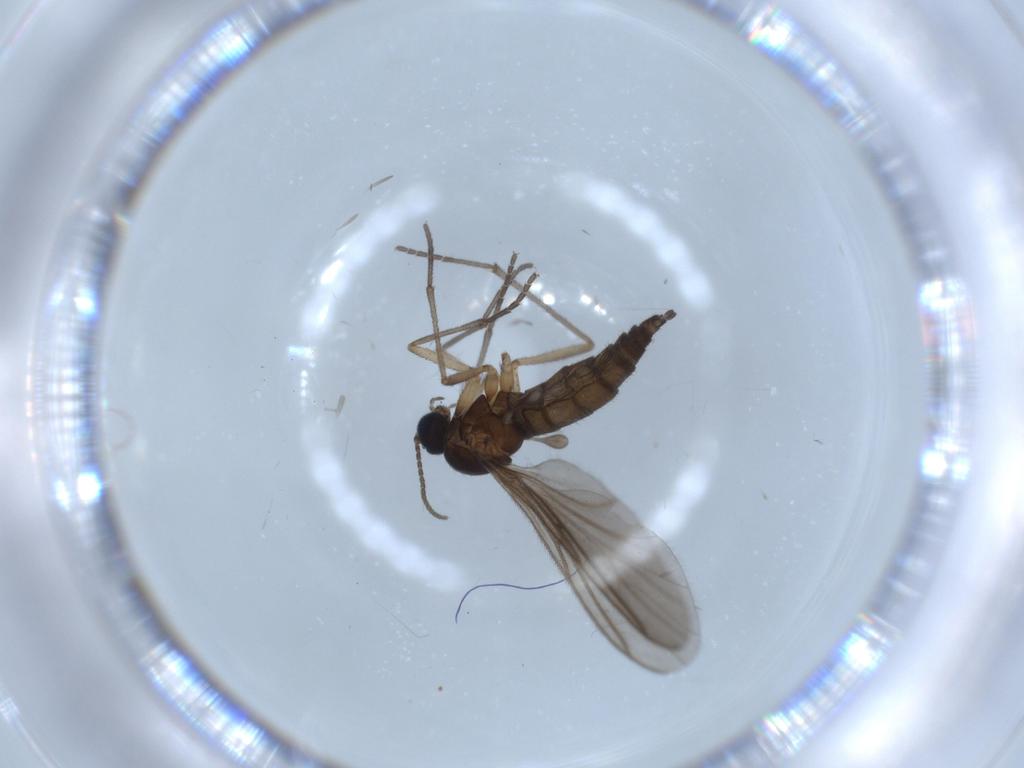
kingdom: Animalia
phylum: Arthropoda
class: Insecta
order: Diptera
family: Sciaridae
